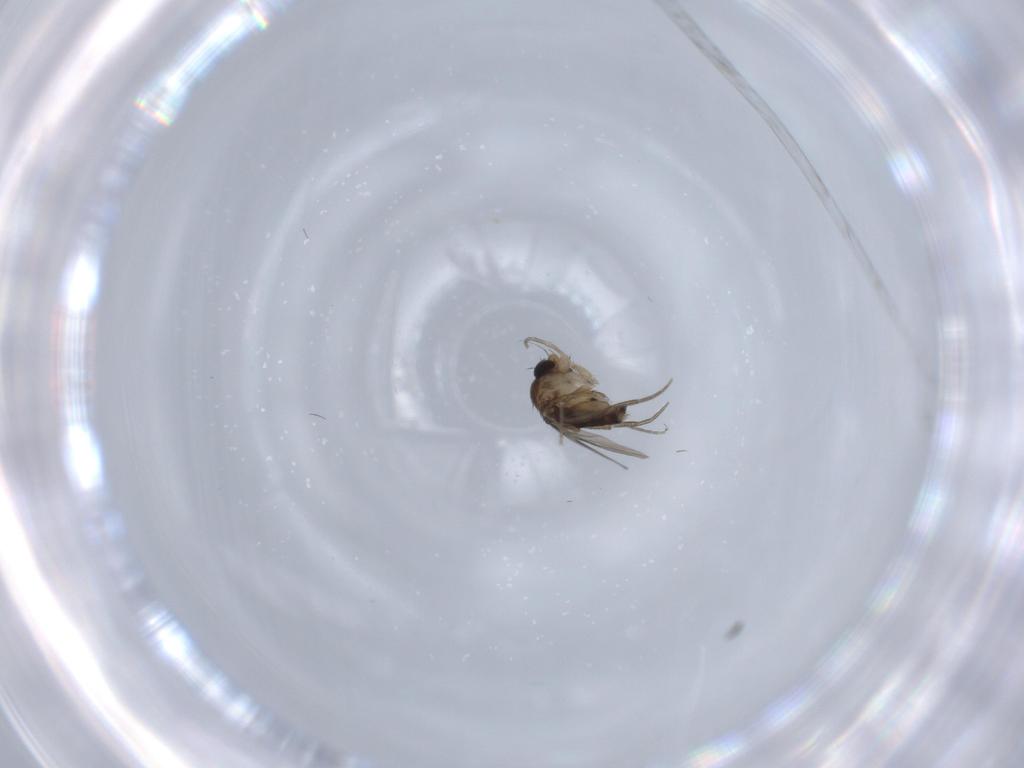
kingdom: Animalia
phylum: Arthropoda
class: Insecta
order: Diptera
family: Phoridae
